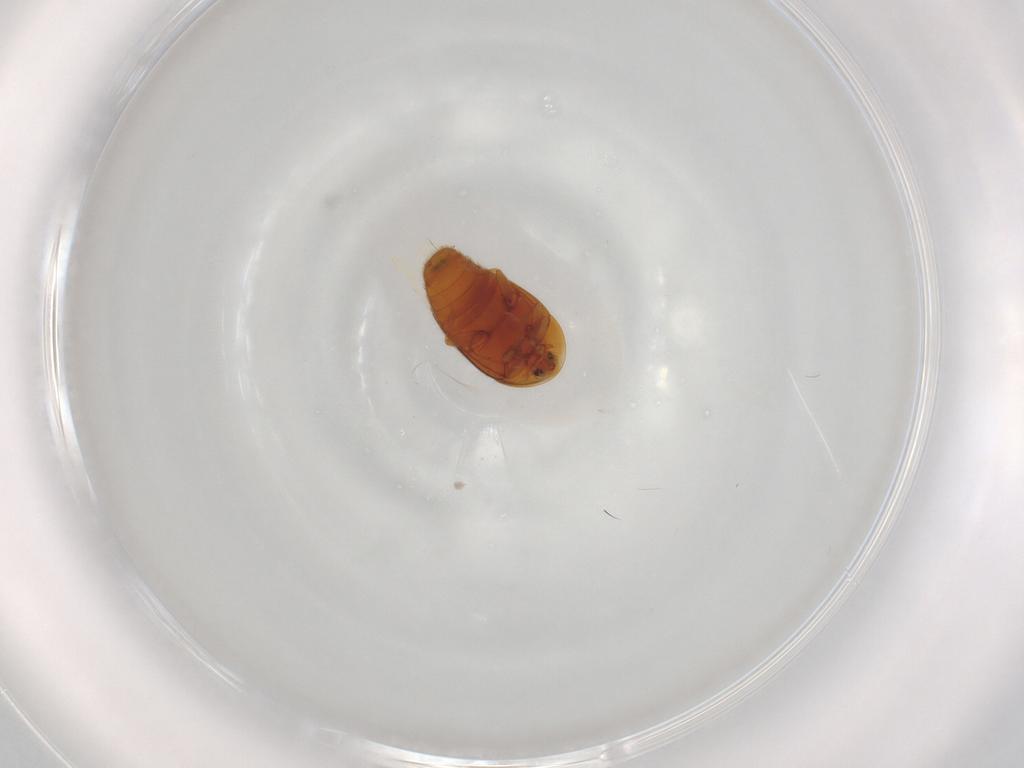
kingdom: Animalia
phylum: Arthropoda
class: Insecta
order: Coleoptera
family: Corylophidae
